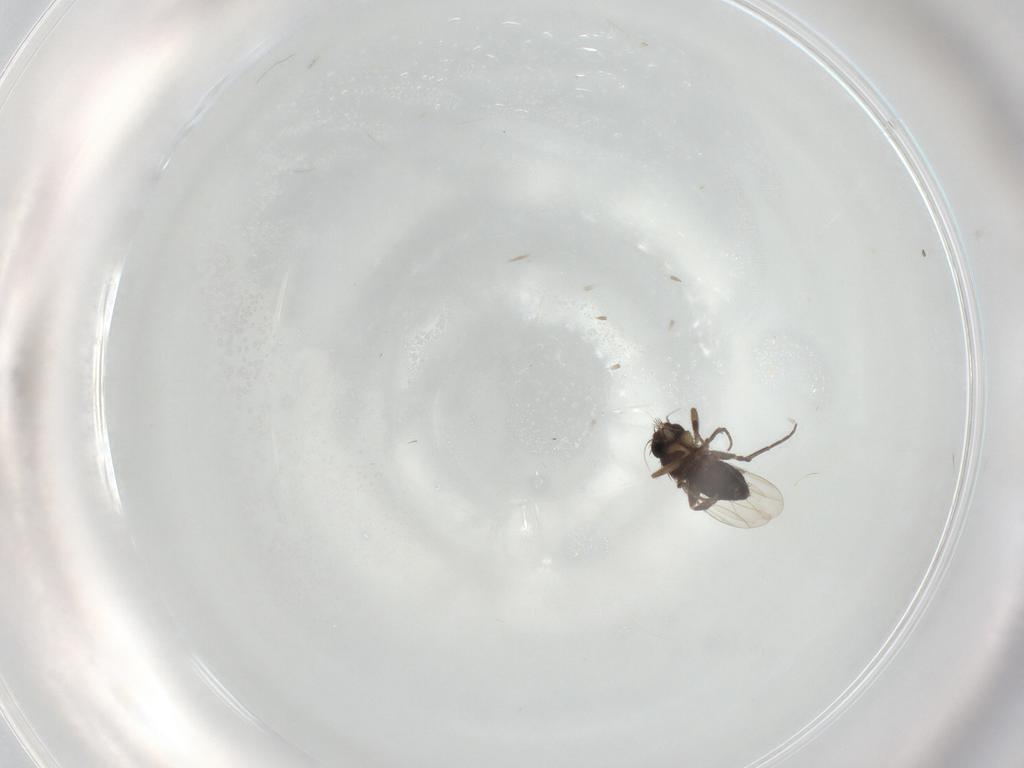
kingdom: Animalia
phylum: Arthropoda
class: Insecta
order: Diptera
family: Phoridae
